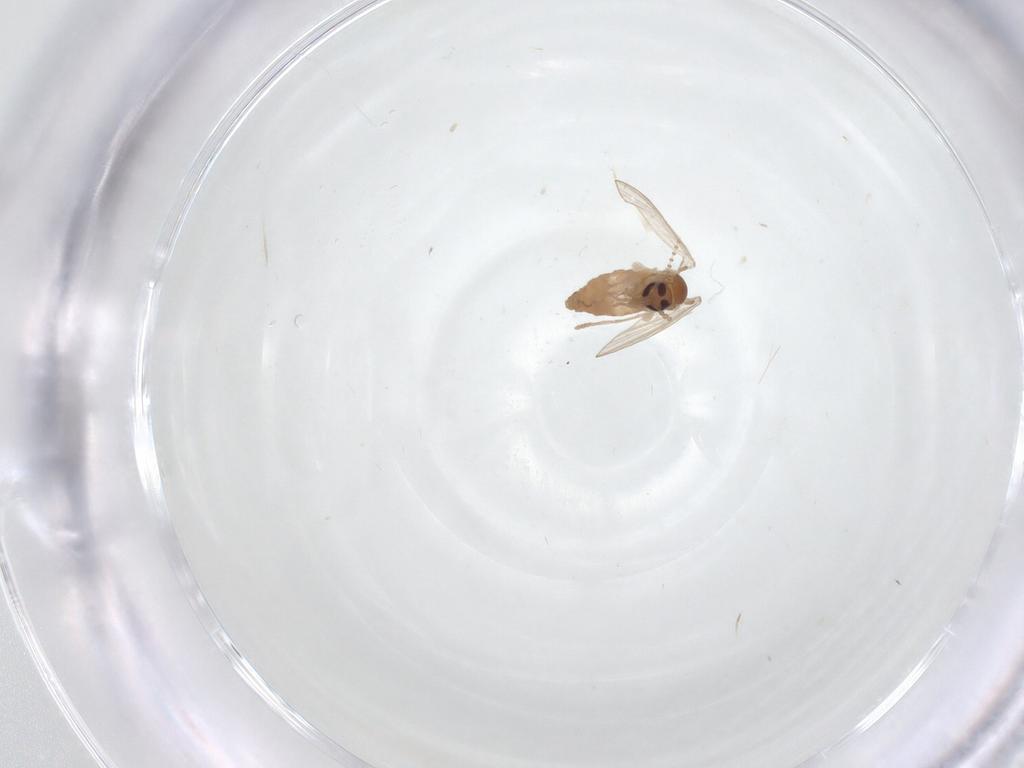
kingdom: Animalia
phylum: Arthropoda
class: Insecta
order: Diptera
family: Psychodidae
